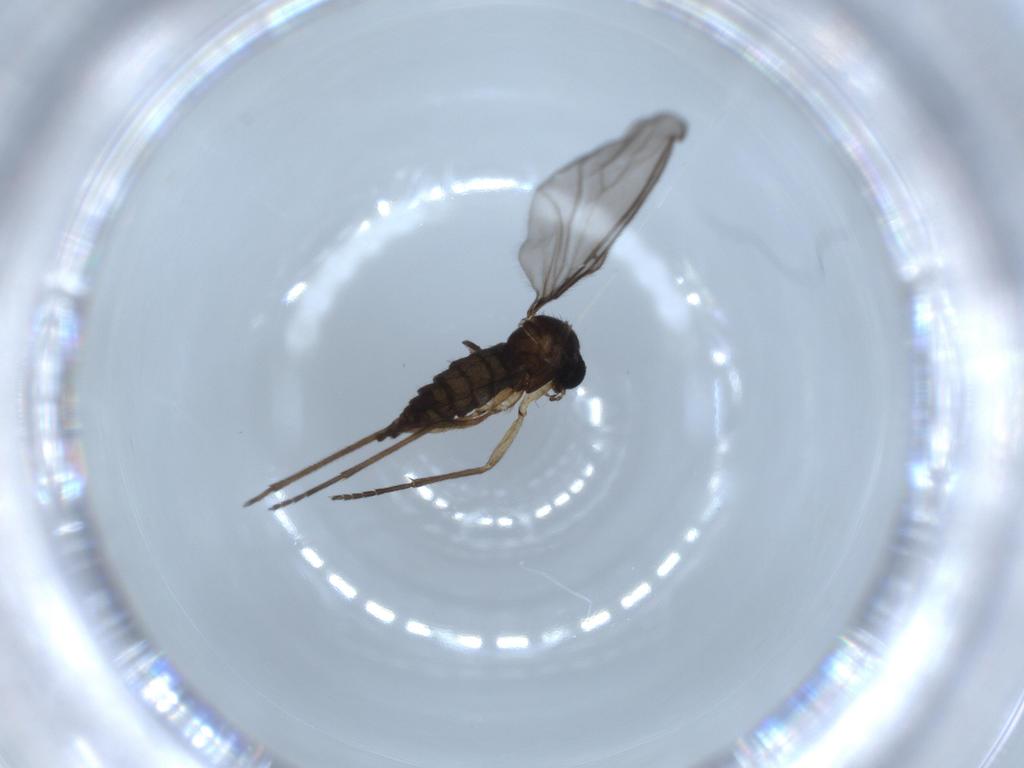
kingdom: Animalia
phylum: Arthropoda
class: Insecta
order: Diptera
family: Sciaridae
